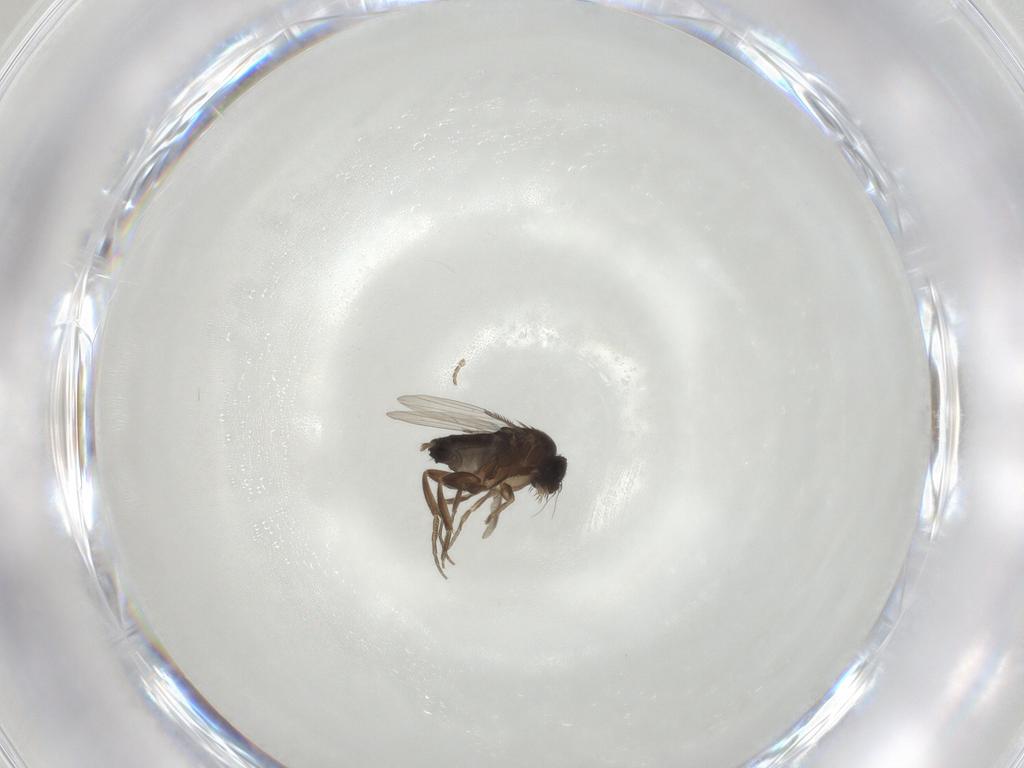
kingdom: Animalia
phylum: Arthropoda
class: Insecta
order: Diptera
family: Phoridae
